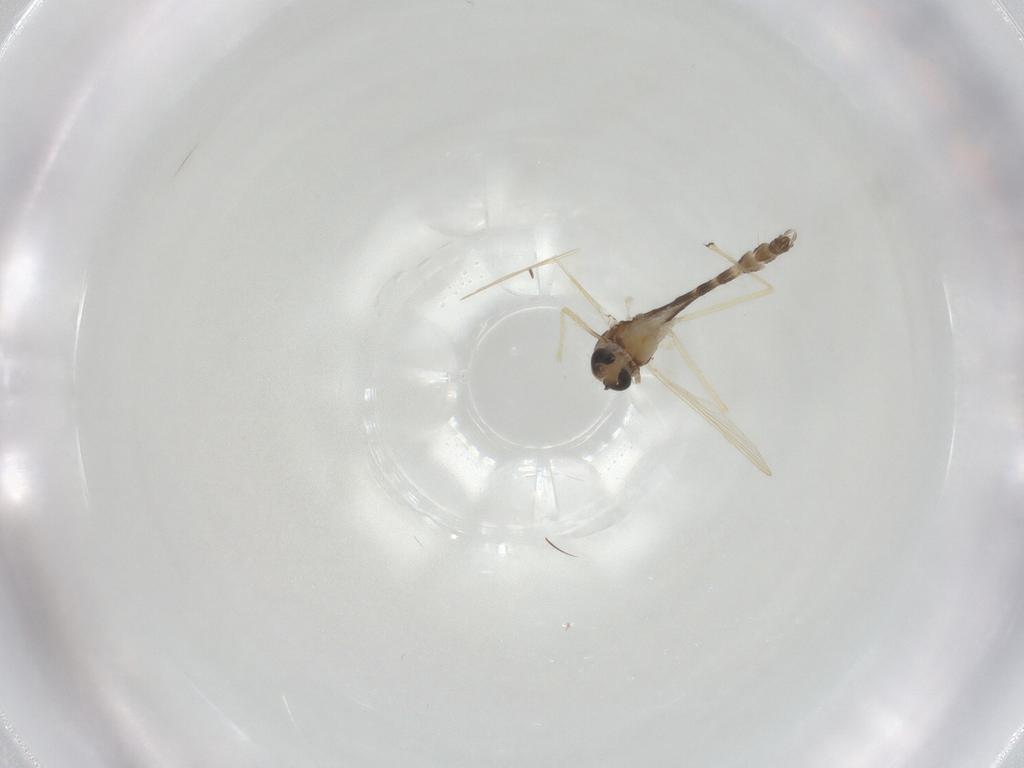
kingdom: Animalia
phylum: Arthropoda
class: Insecta
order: Diptera
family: Chironomidae
